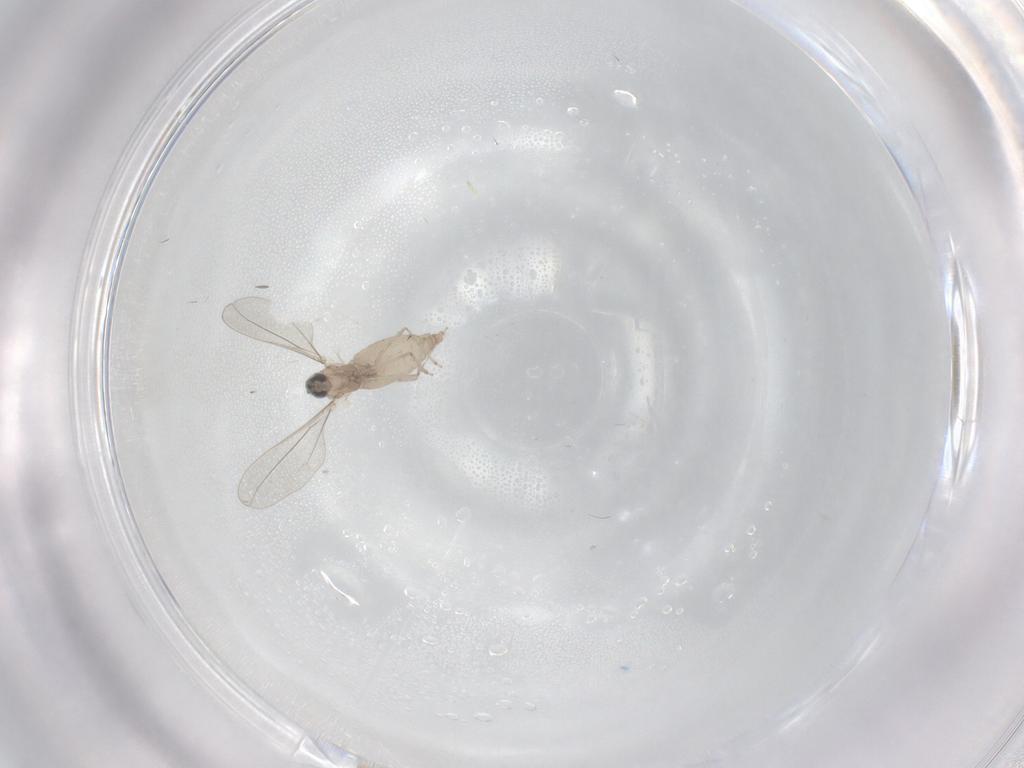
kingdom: Animalia
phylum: Arthropoda
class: Insecta
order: Diptera
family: Cecidomyiidae
